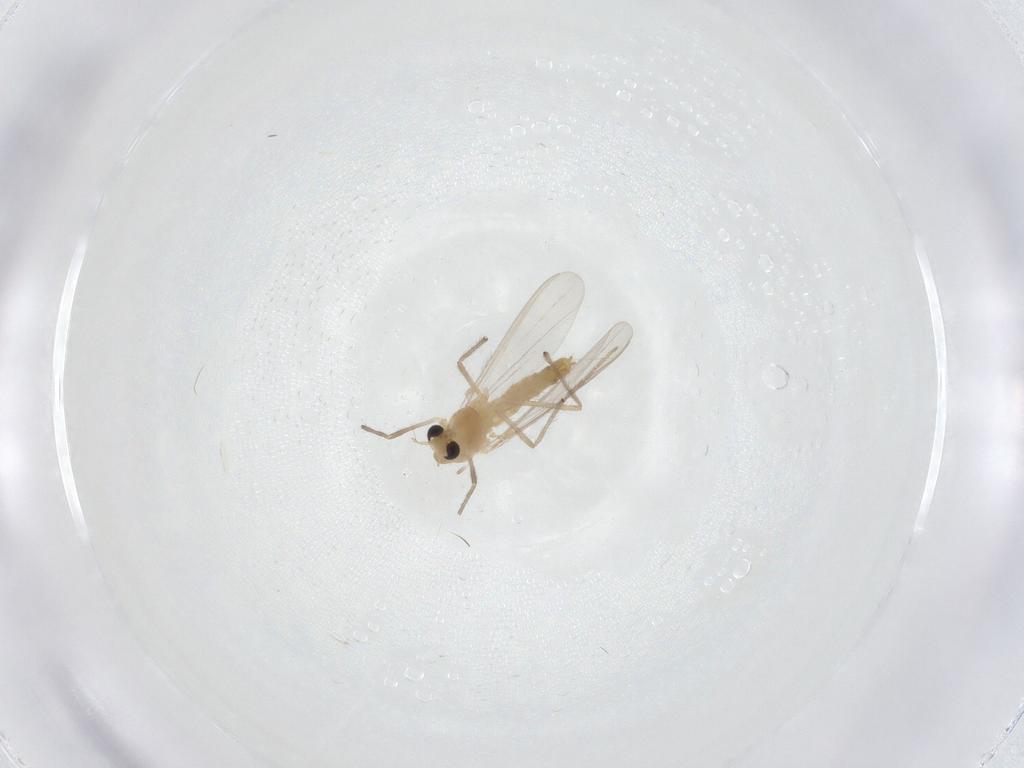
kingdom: Animalia
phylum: Arthropoda
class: Insecta
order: Diptera
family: Chironomidae
